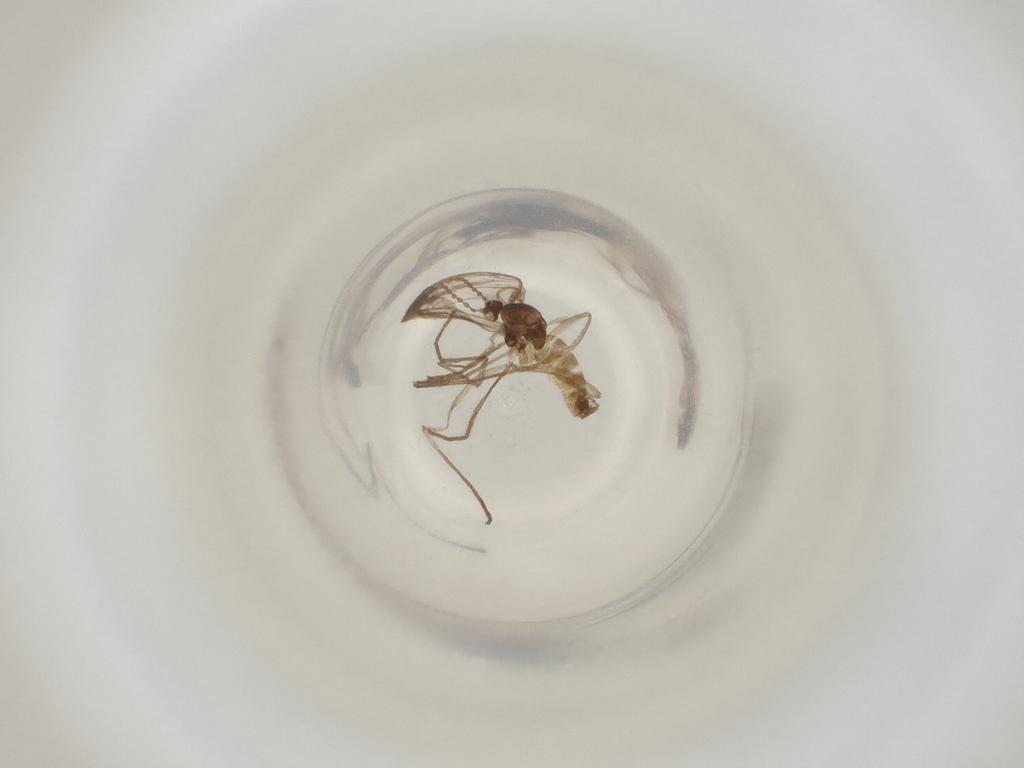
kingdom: Animalia
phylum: Arthropoda
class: Insecta
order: Diptera
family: Cecidomyiidae
